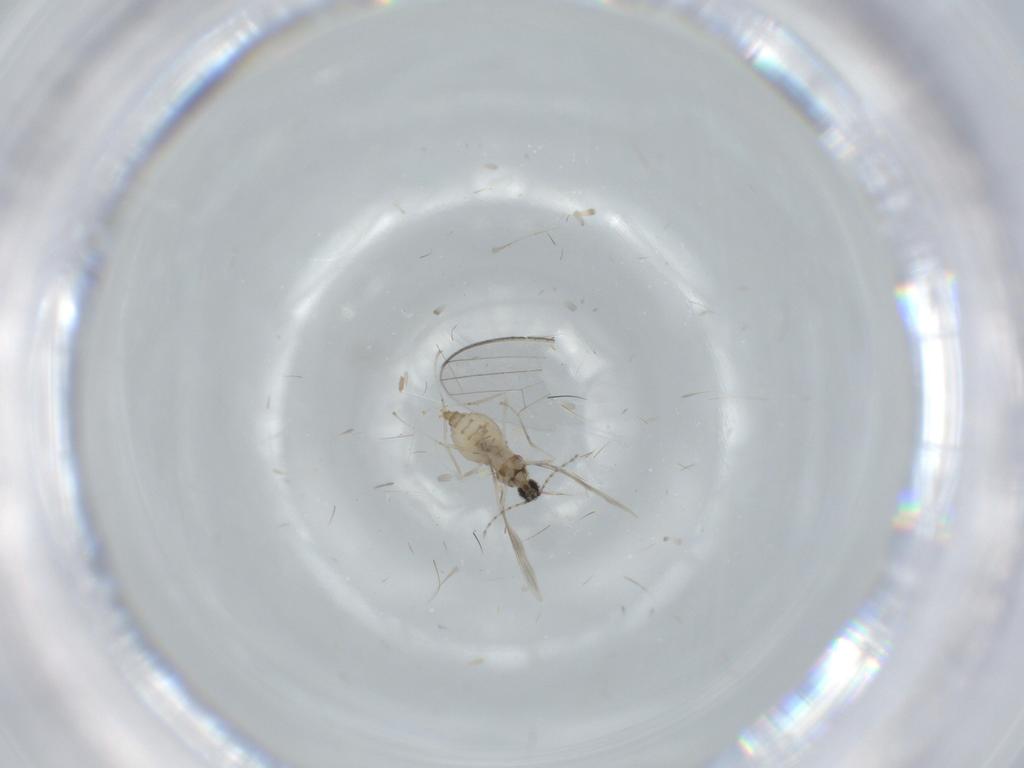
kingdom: Animalia
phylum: Arthropoda
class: Insecta
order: Diptera
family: Cecidomyiidae
